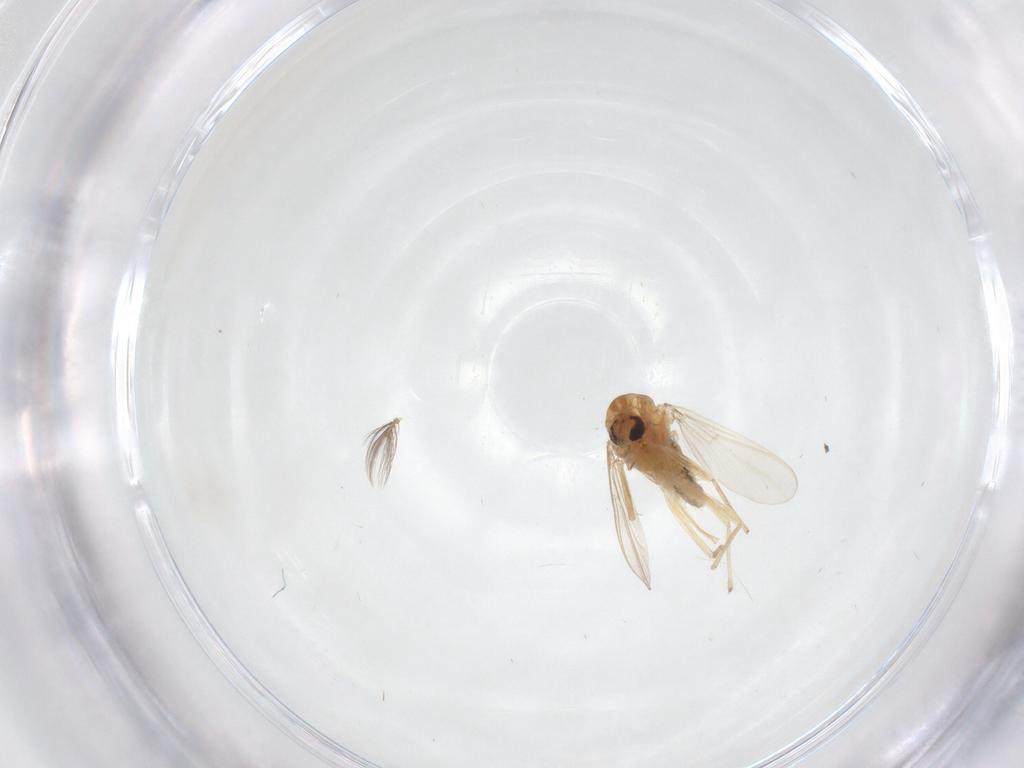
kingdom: Animalia
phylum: Arthropoda
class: Insecta
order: Diptera
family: Chironomidae
